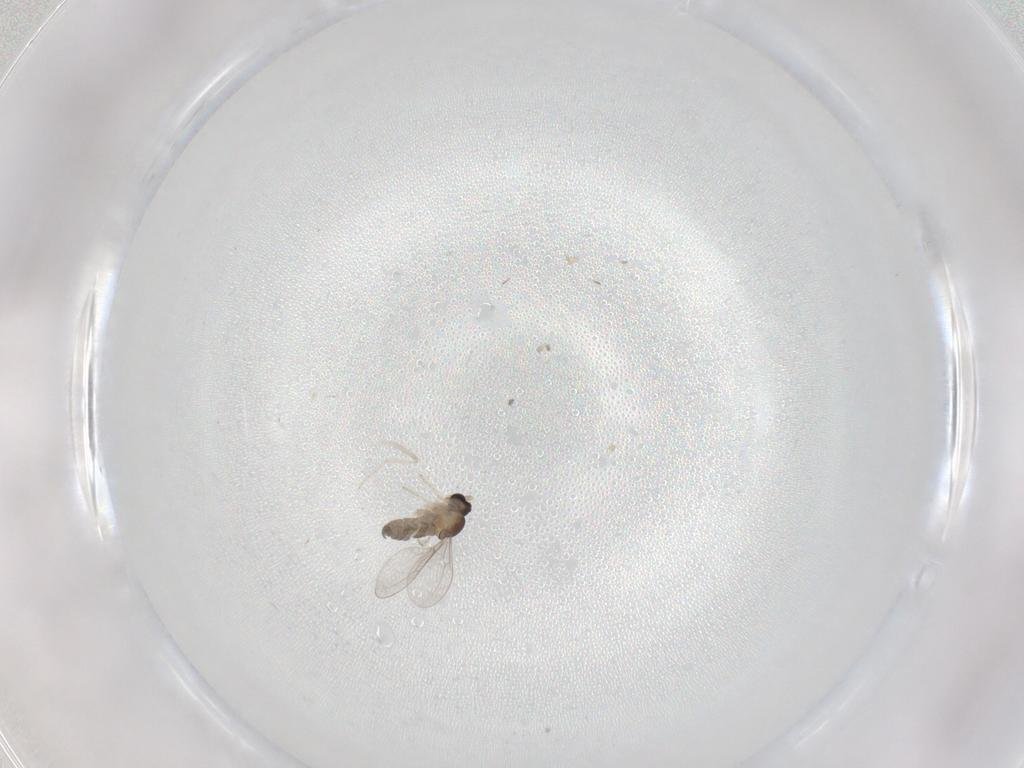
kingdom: Animalia
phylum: Arthropoda
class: Insecta
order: Diptera
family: Cecidomyiidae
